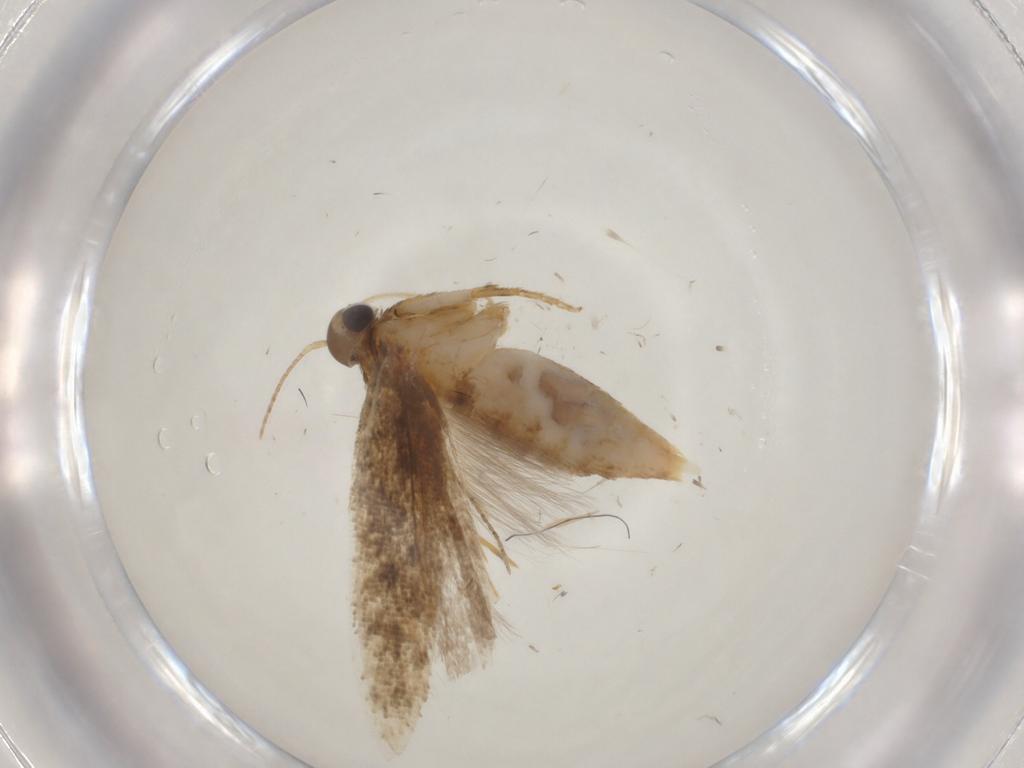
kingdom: Animalia
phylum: Arthropoda
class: Insecta
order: Lepidoptera
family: Gelechiidae
